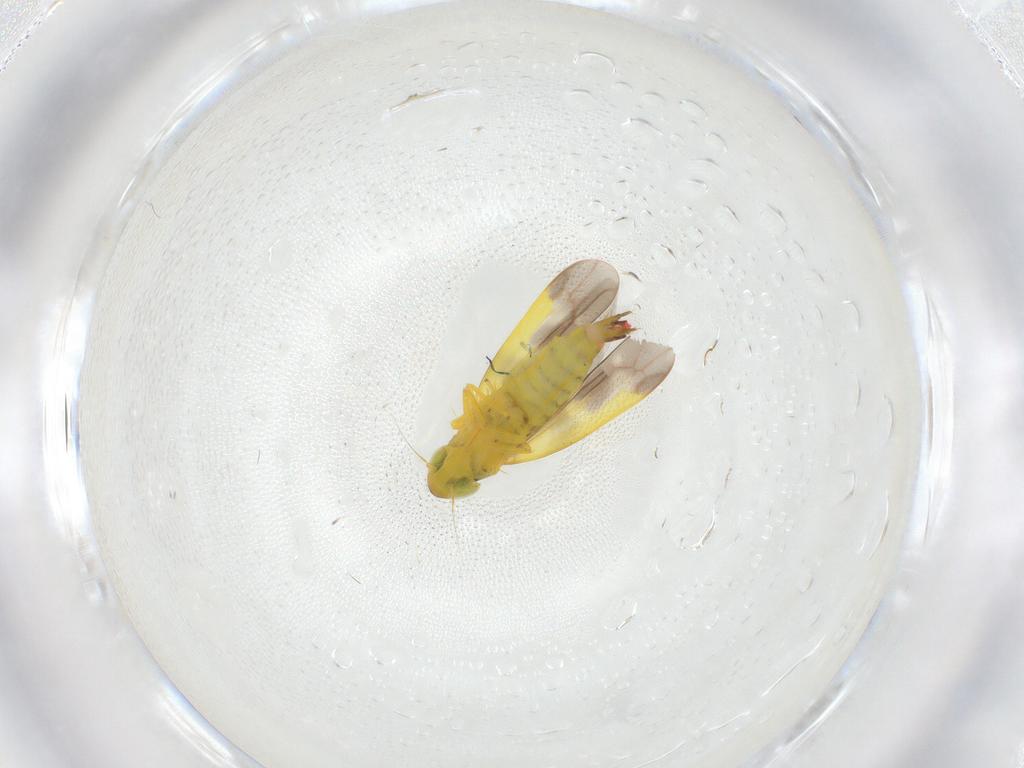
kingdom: Animalia
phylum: Arthropoda
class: Insecta
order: Hemiptera
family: Cicadellidae
